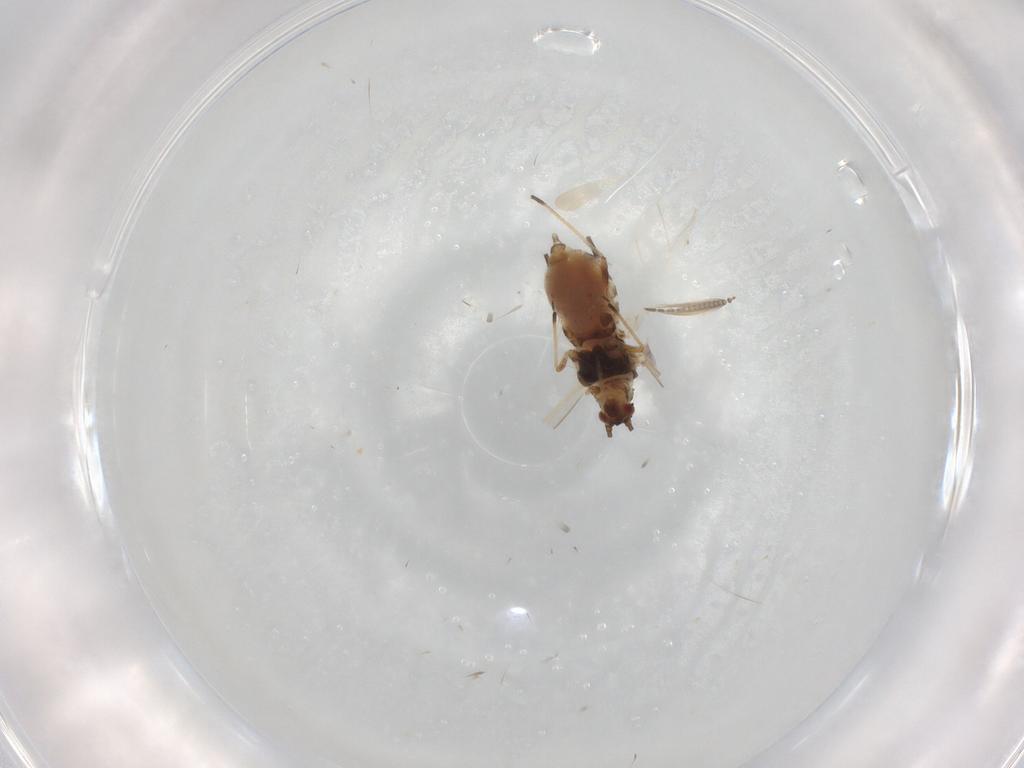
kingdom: Animalia
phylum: Arthropoda
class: Insecta
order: Hemiptera
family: Aphididae
